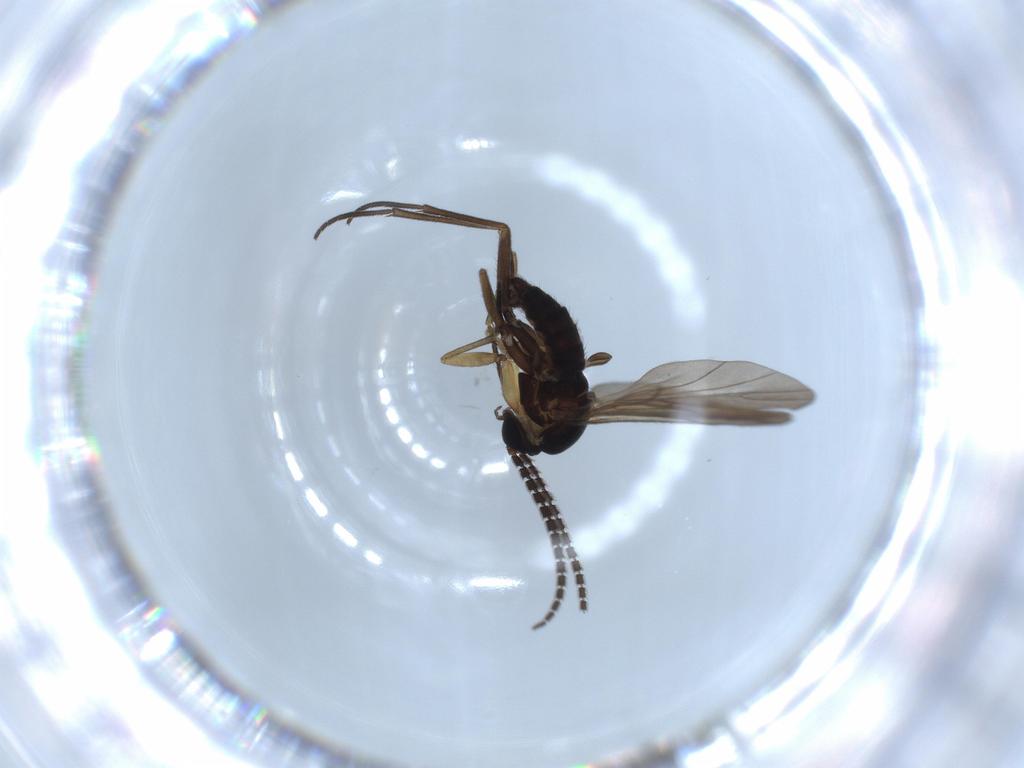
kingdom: Animalia
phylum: Arthropoda
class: Insecta
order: Diptera
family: Sciaridae
